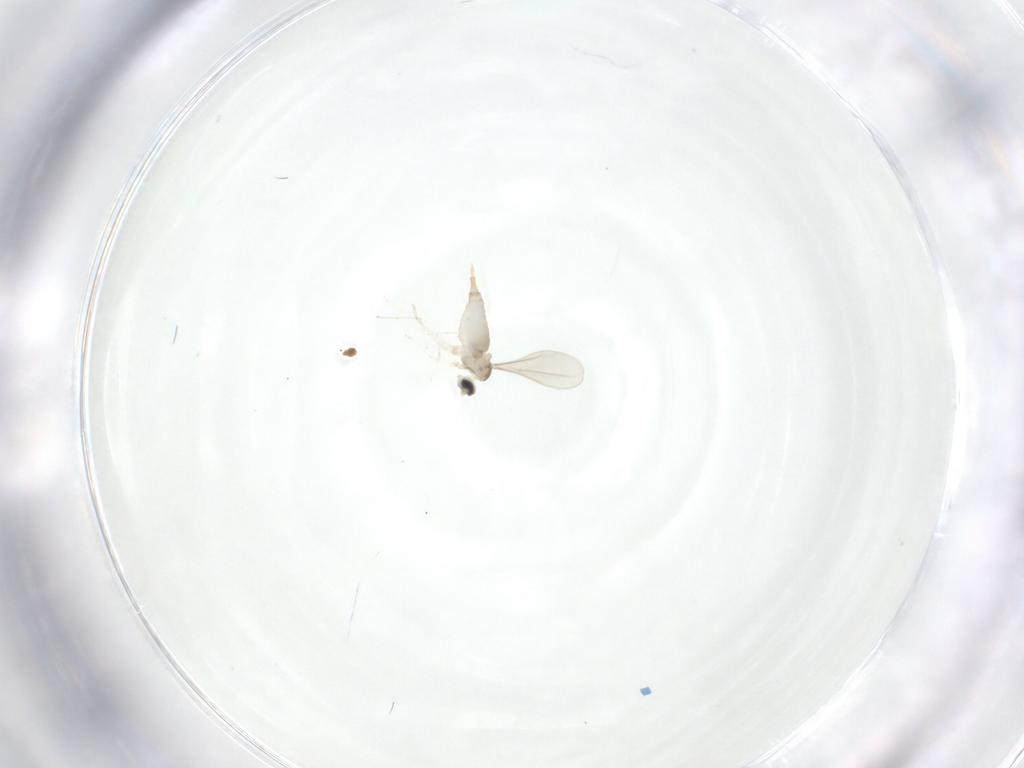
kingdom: Animalia
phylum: Arthropoda
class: Insecta
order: Diptera
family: Cecidomyiidae
